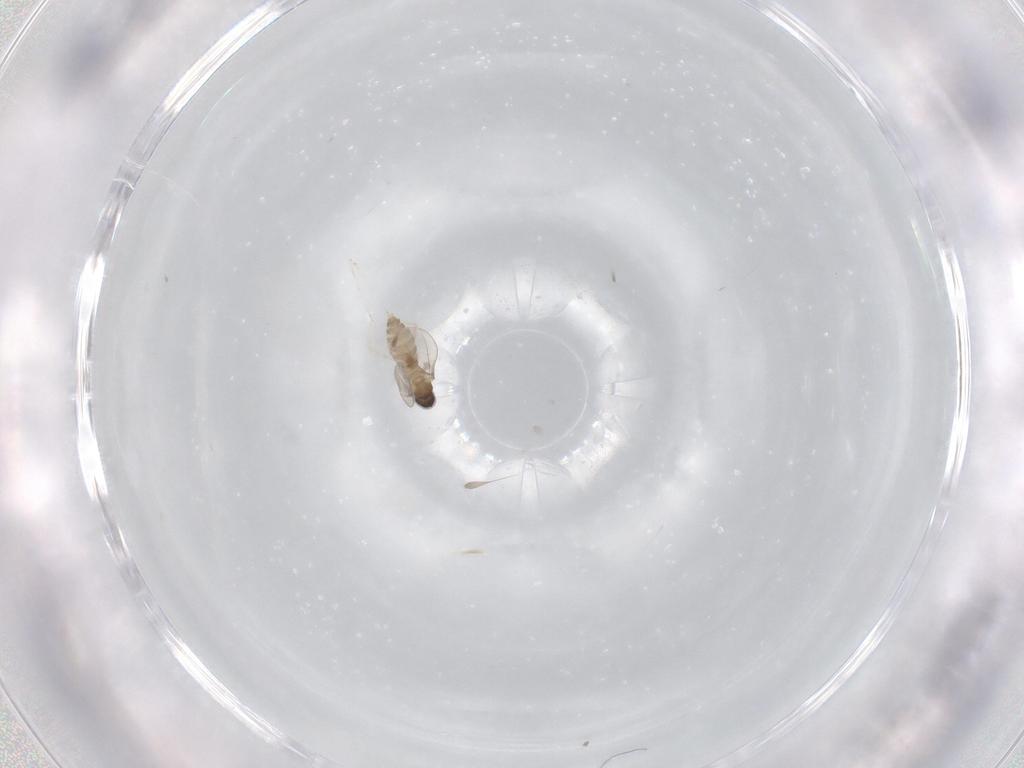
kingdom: Animalia
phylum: Arthropoda
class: Insecta
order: Diptera
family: Cecidomyiidae
